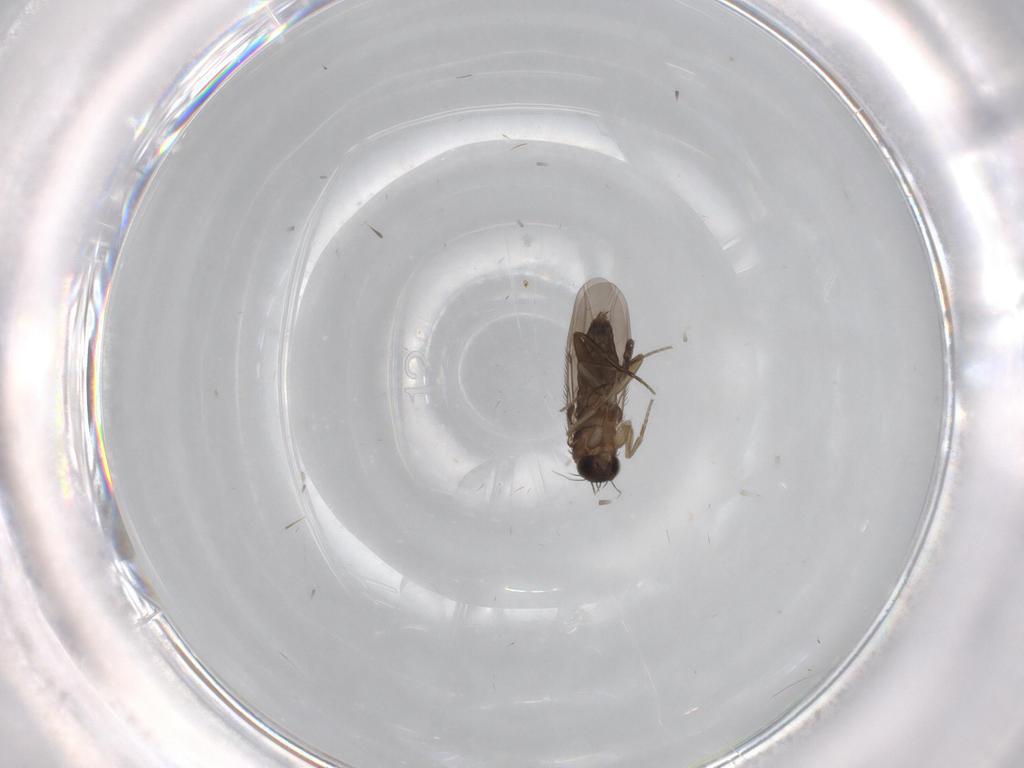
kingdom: Animalia
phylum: Arthropoda
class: Insecta
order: Diptera
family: Phoridae
